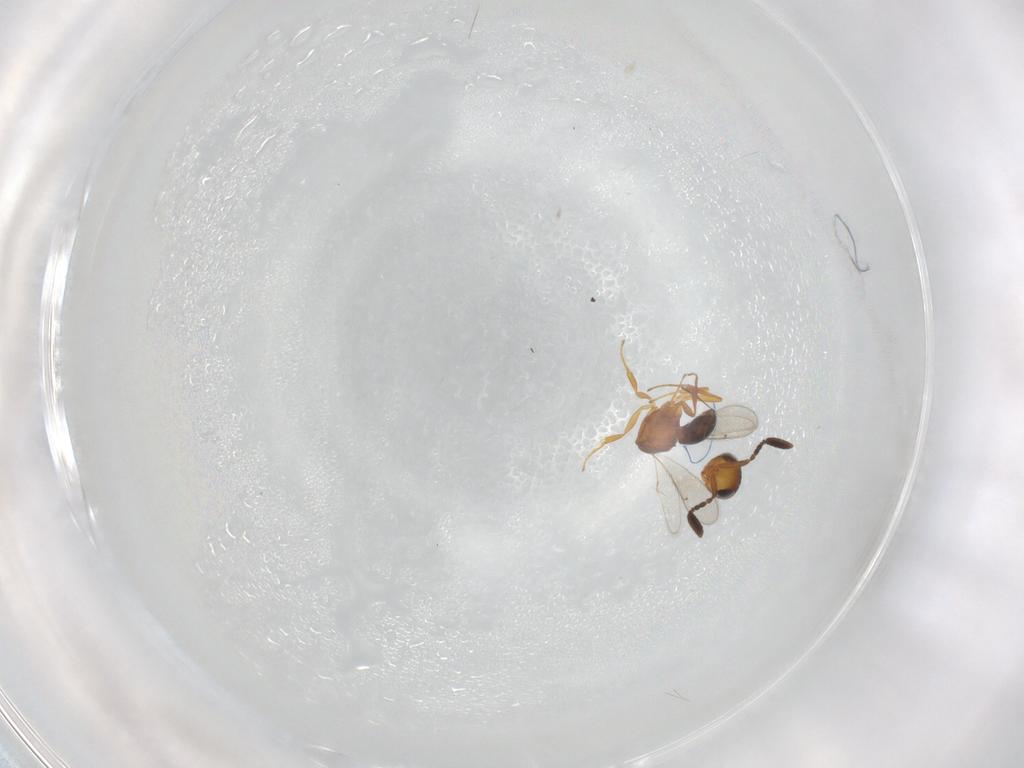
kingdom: Animalia
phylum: Arthropoda
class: Insecta
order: Hymenoptera
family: Scelionidae
